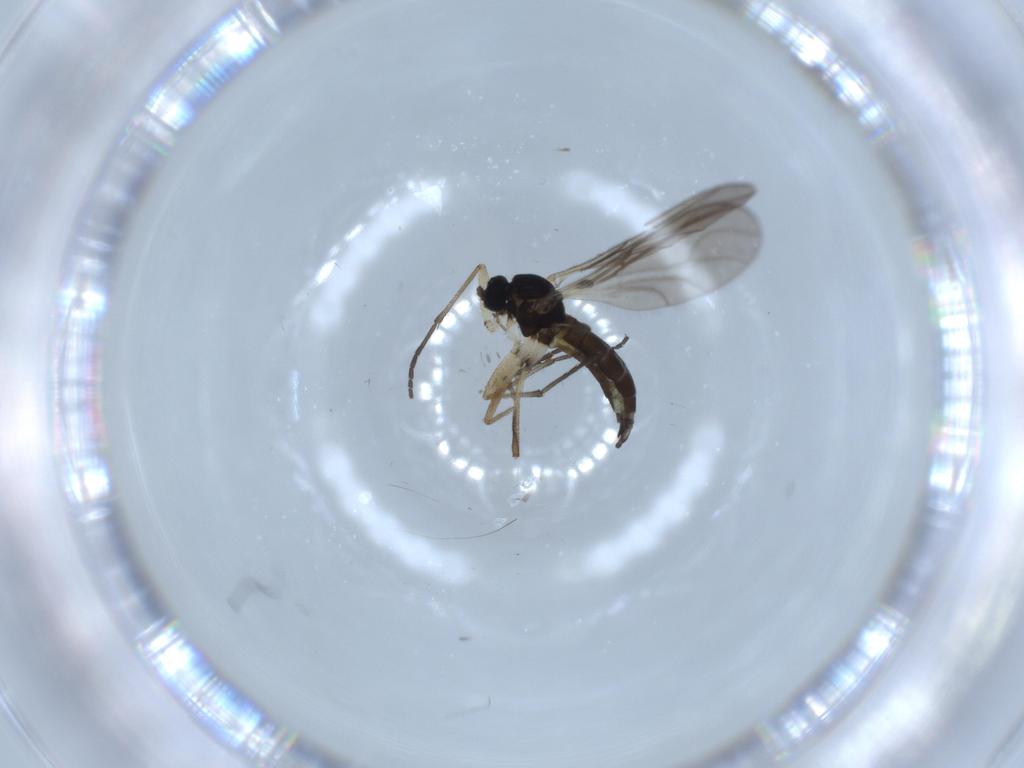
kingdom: Animalia
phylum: Arthropoda
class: Insecta
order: Diptera
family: Sciaridae
